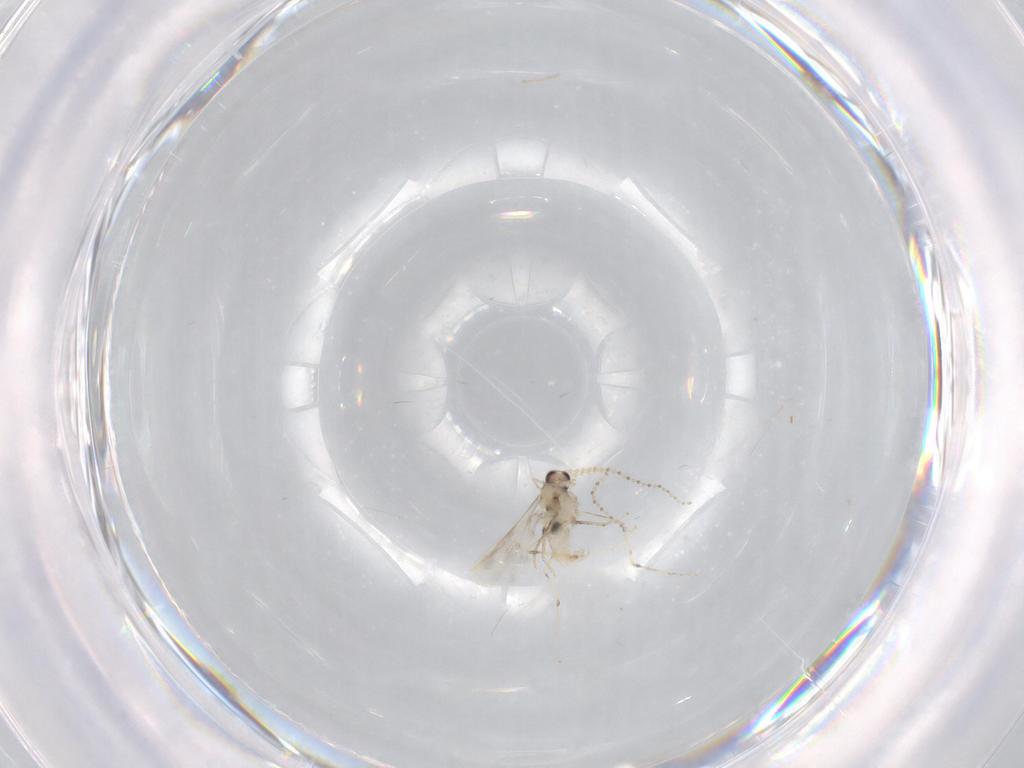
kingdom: Animalia
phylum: Arthropoda
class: Insecta
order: Diptera
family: Cecidomyiidae
